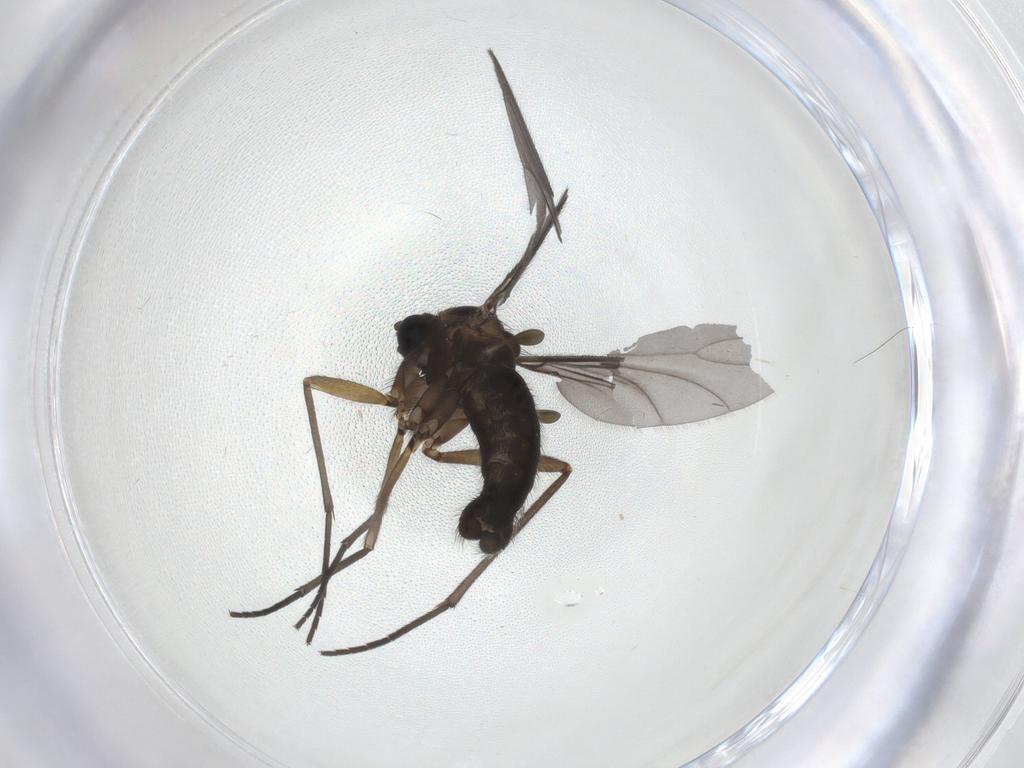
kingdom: Animalia
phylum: Arthropoda
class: Insecta
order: Diptera
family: Sciaridae
